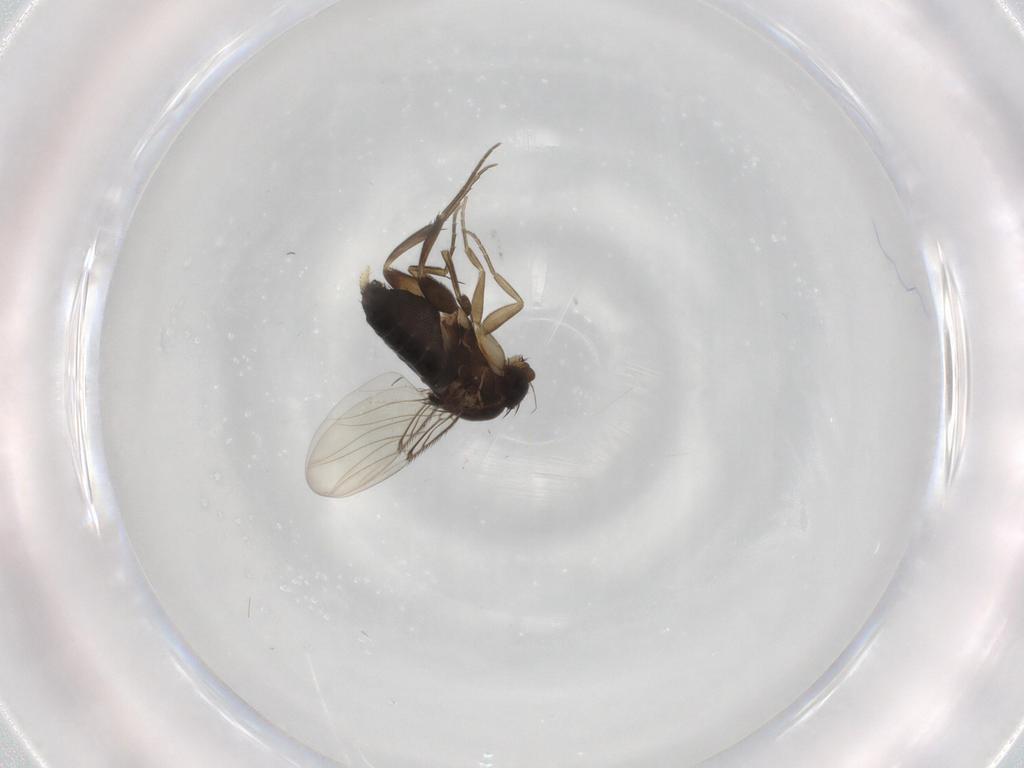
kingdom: Animalia
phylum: Arthropoda
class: Insecta
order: Diptera
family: Phoridae
